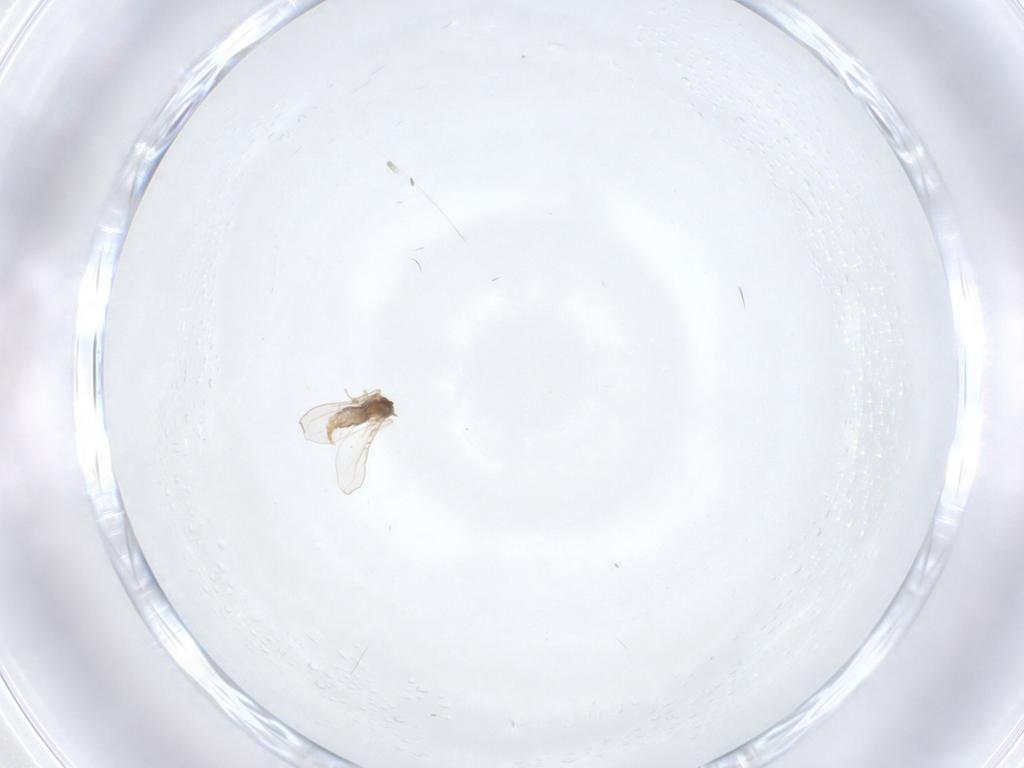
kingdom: Animalia
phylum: Arthropoda
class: Insecta
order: Diptera
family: Cecidomyiidae
